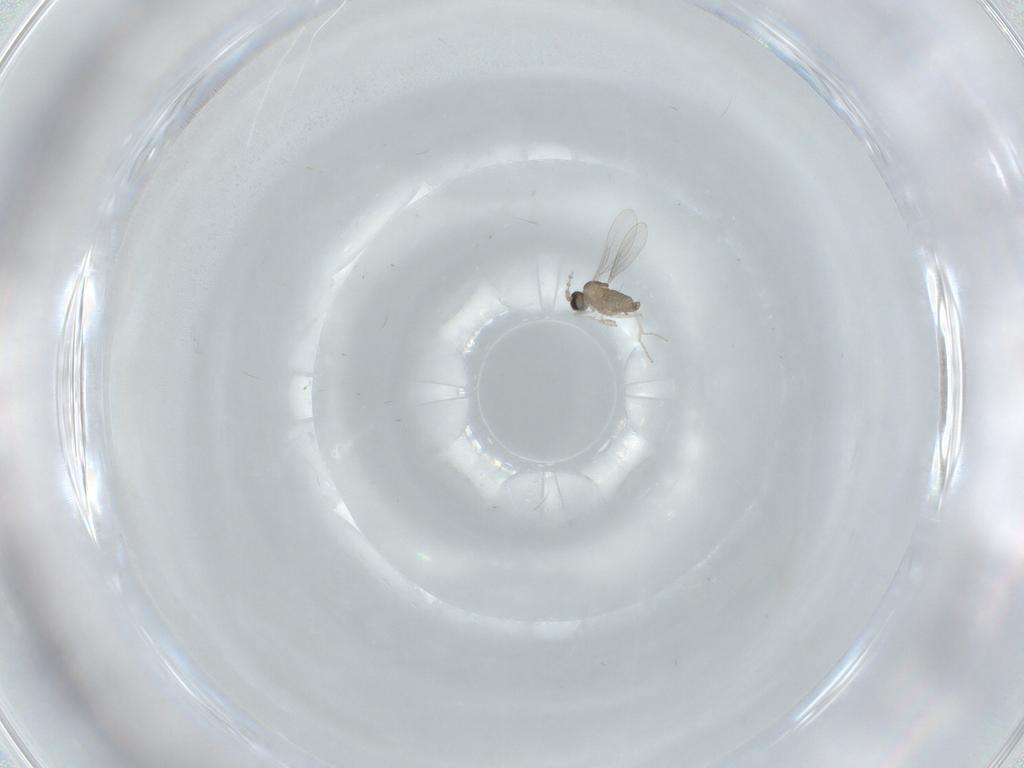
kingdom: Animalia
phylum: Arthropoda
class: Insecta
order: Diptera
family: Cecidomyiidae
